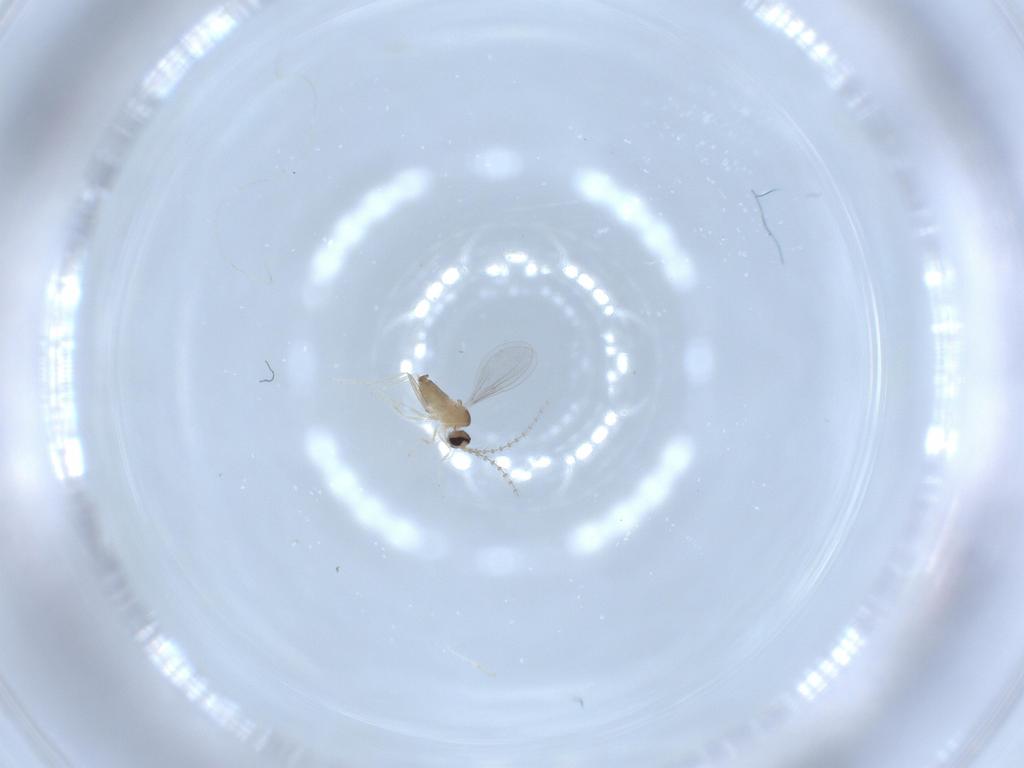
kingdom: Animalia
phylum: Arthropoda
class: Insecta
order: Diptera
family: Cecidomyiidae
